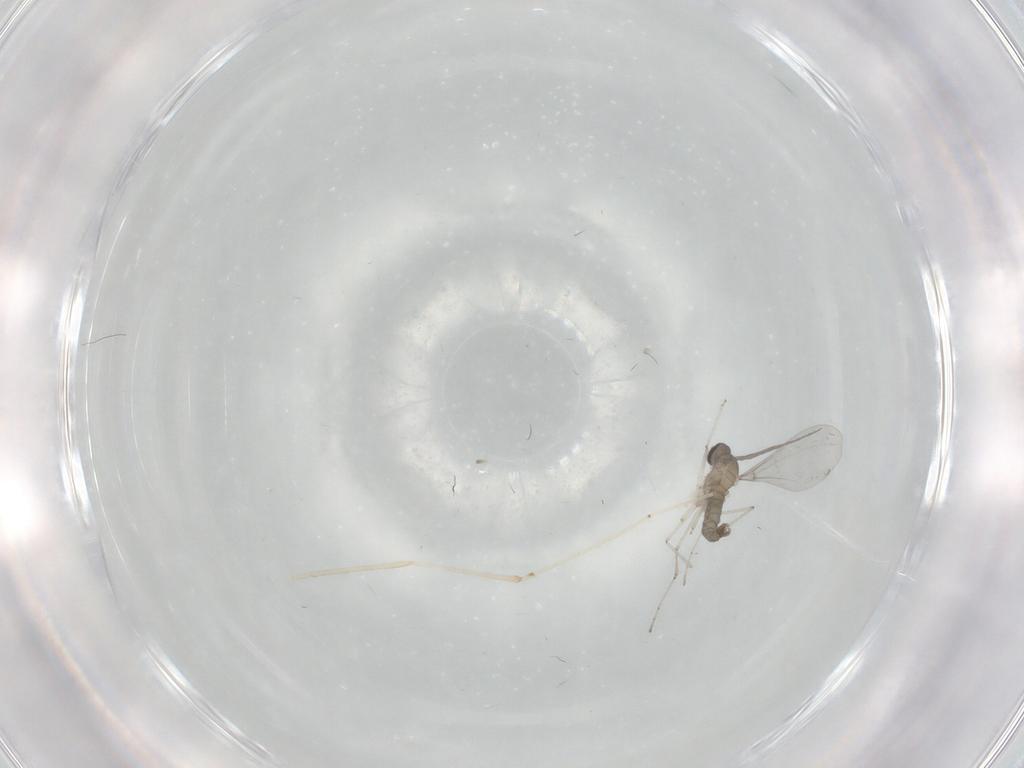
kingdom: Animalia
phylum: Arthropoda
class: Insecta
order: Diptera
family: Cecidomyiidae
